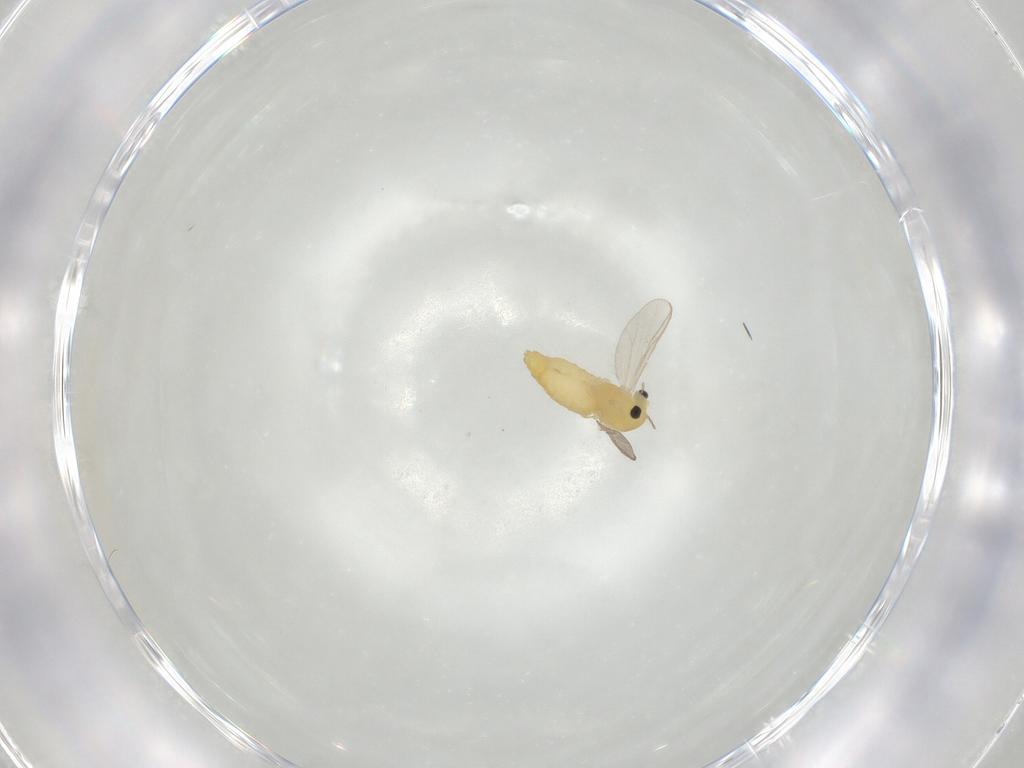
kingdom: Animalia
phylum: Arthropoda
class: Insecta
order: Diptera
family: Chironomidae
